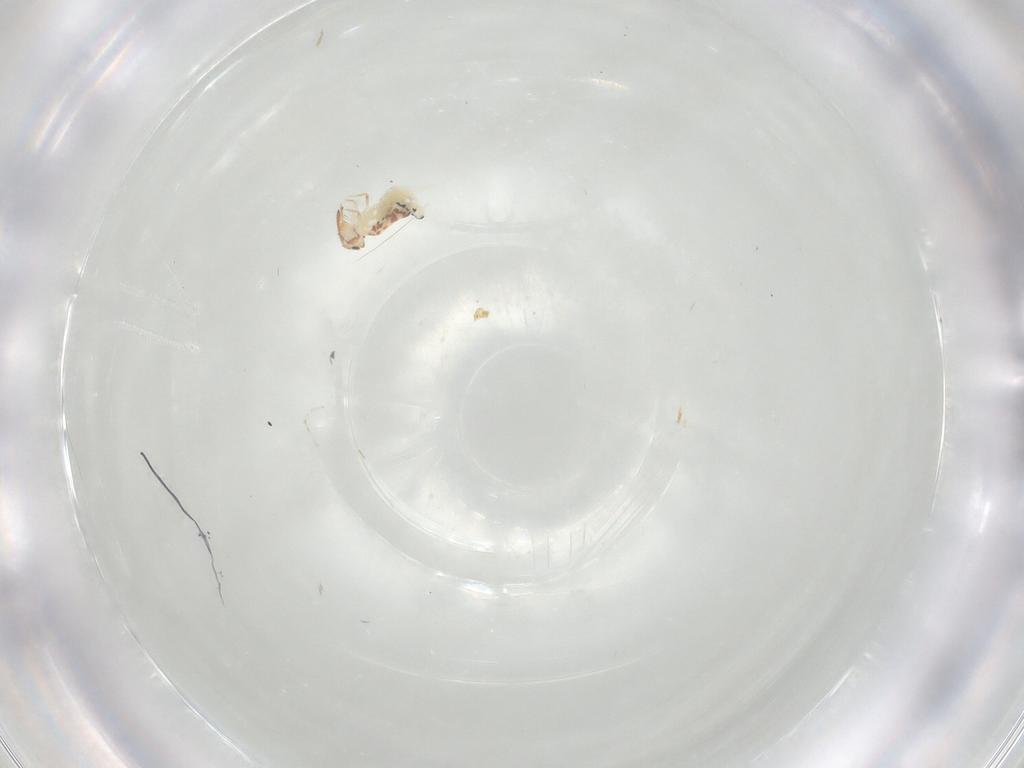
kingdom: Animalia
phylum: Arthropoda
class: Collembola
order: Symphypleona
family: Bourletiellidae
